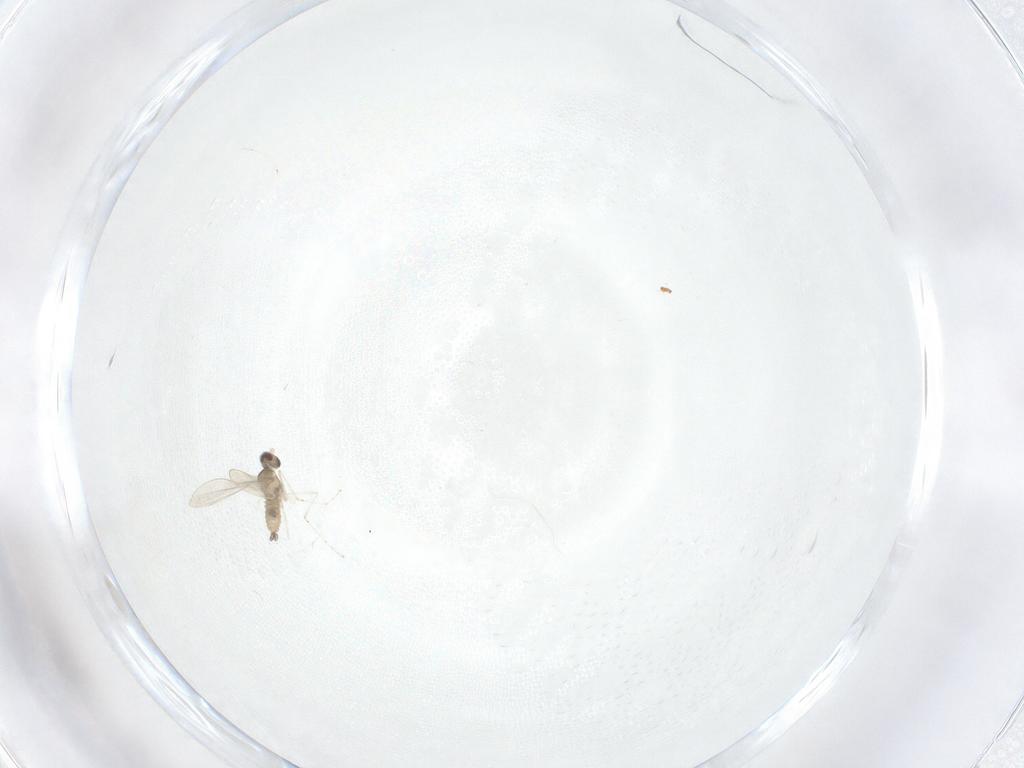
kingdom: Animalia
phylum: Arthropoda
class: Insecta
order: Diptera
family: Cecidomyiidae
